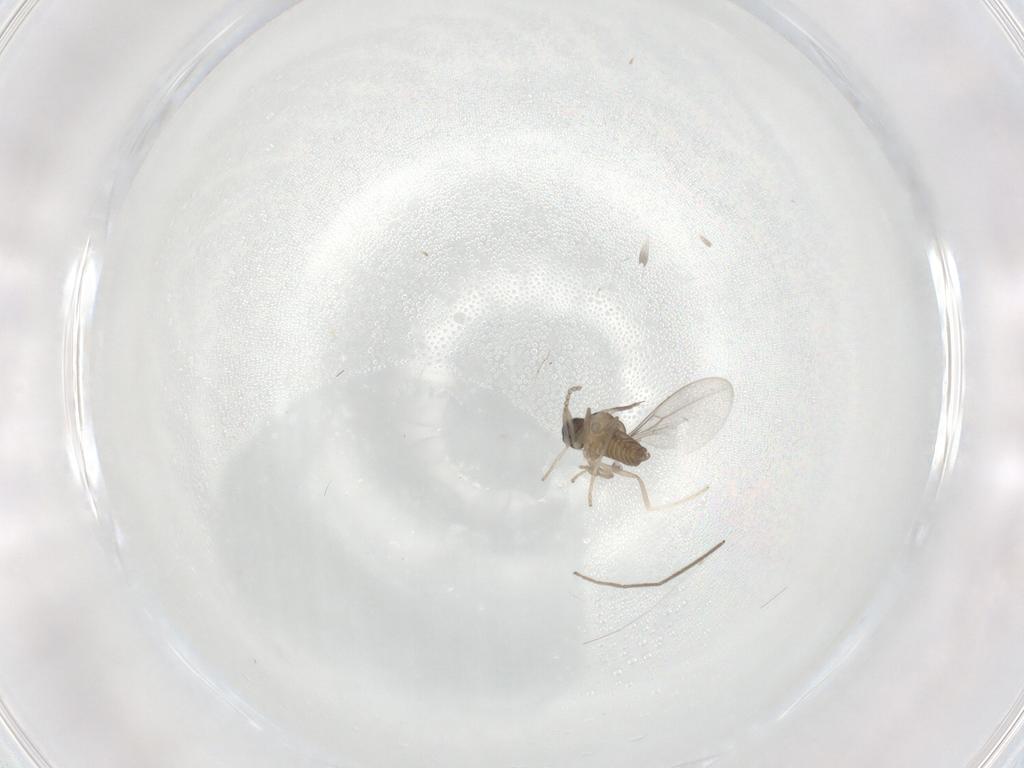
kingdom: Animalia
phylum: Arthropoda
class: Insecta
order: Diptera
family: Cecidomyiidae
